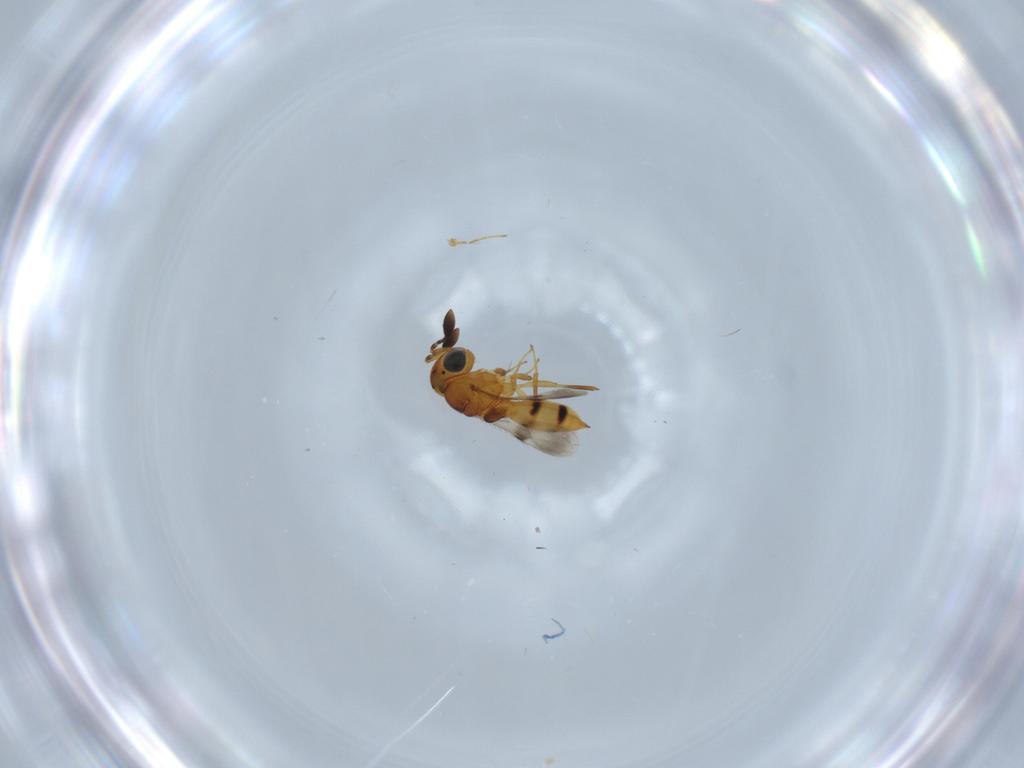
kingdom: Animalia
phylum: Arthropoda
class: Insecta
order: Hymenoptera
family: Scelionidae
